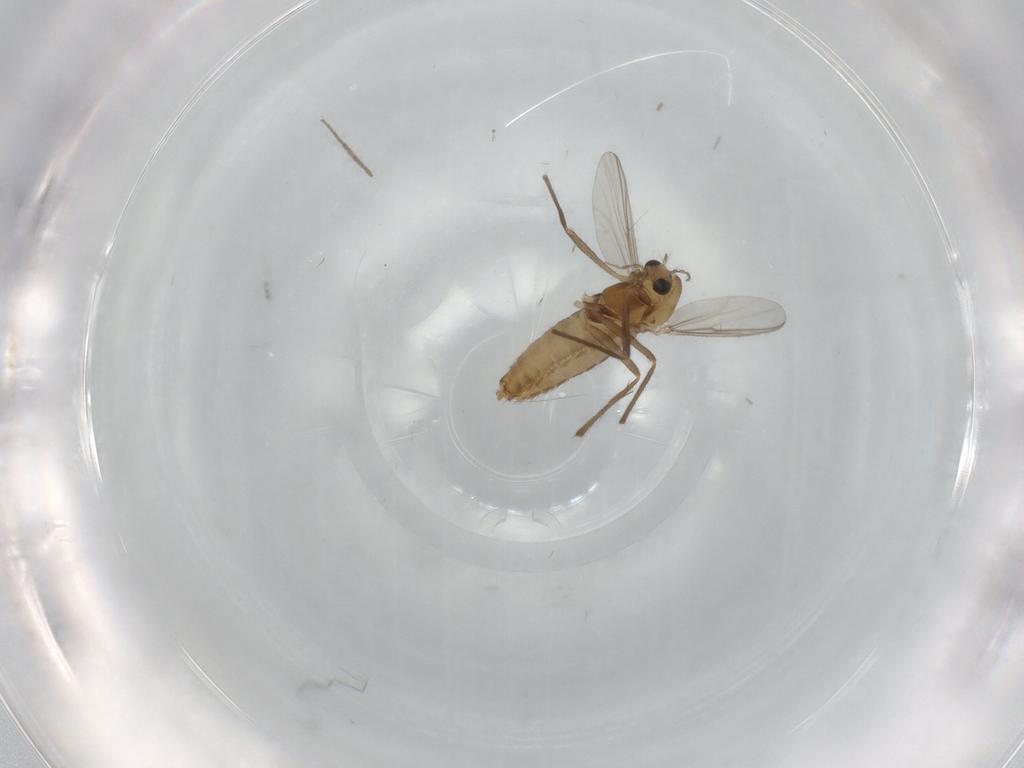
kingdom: Animalia
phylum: Arthropoda
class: Insecta
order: Diptera
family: Chironomidae
